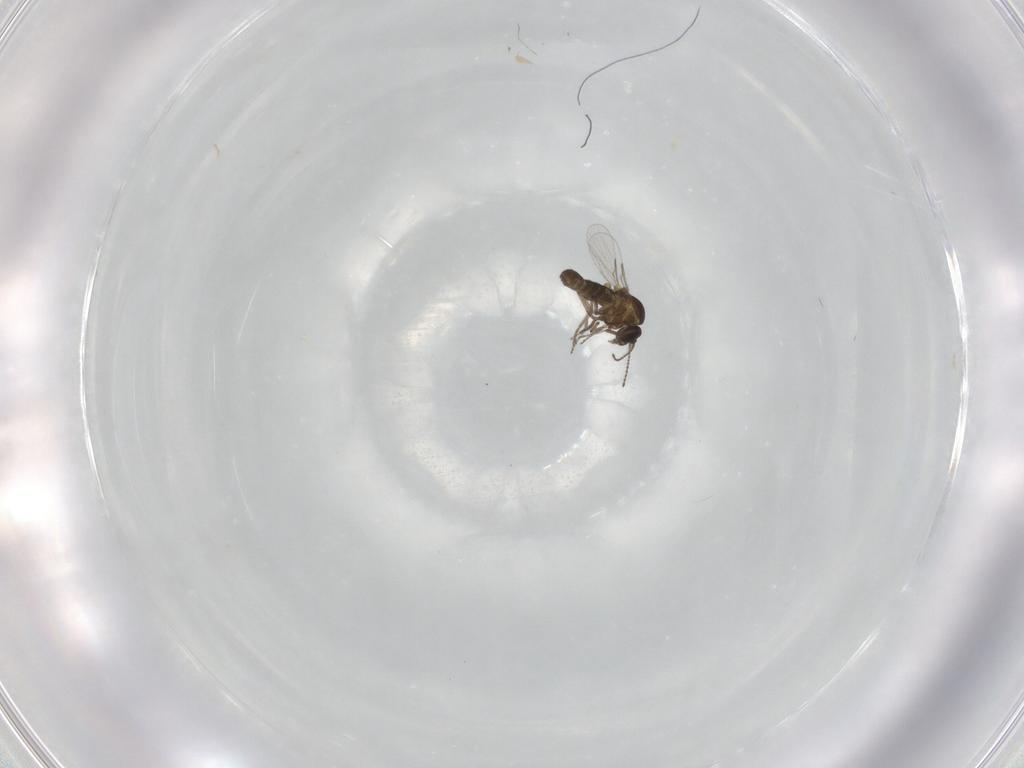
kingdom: Animalia
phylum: Arthropoda
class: Insecta
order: Diptera
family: Ceratopogonidae
